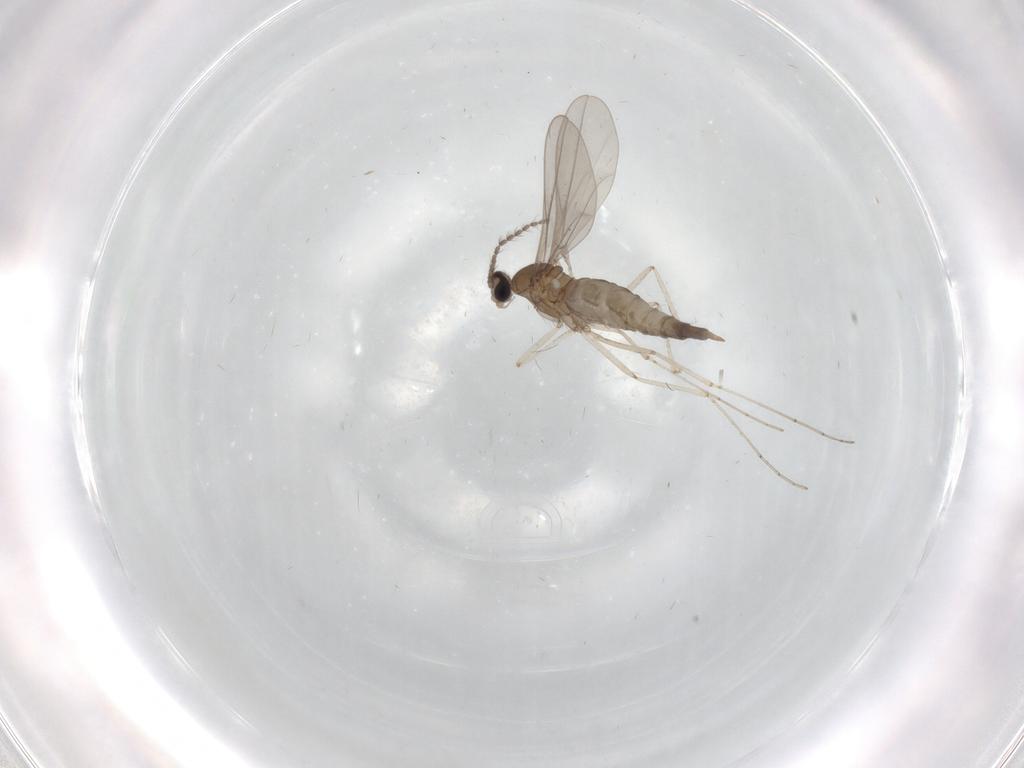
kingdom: Animalia
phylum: Arthropoda
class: Insecta
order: Diptera
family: Cecidomyiidae
